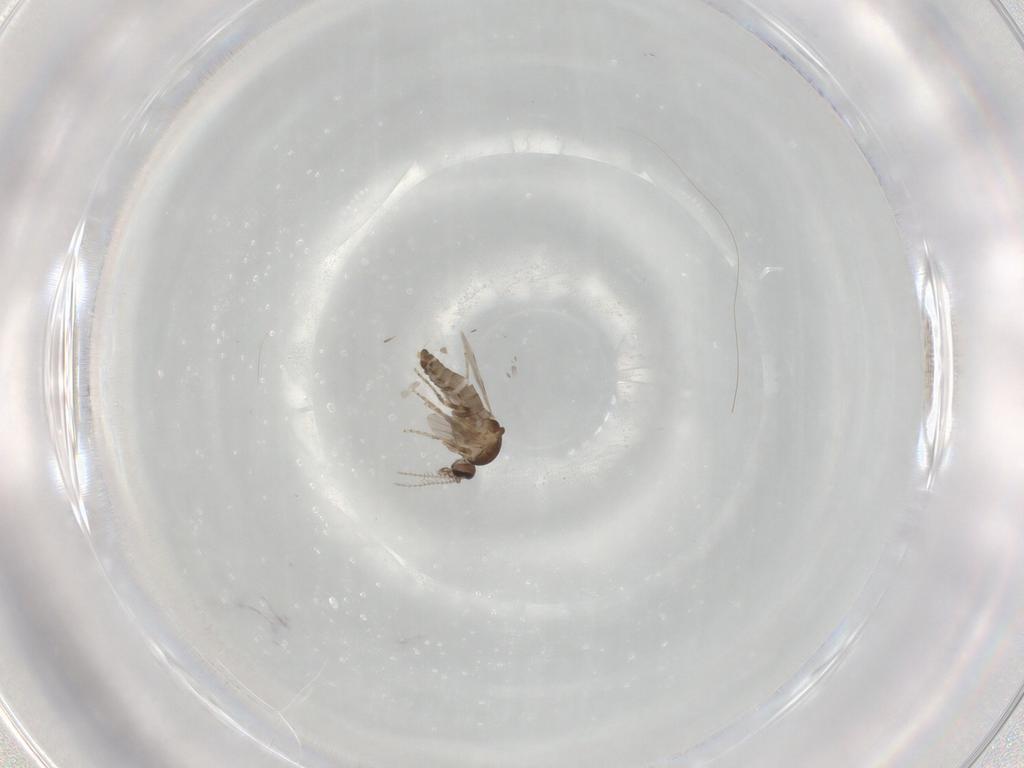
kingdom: Animalia
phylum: Arthropoda
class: Insecta
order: Diptera
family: Ceratopogonidae
